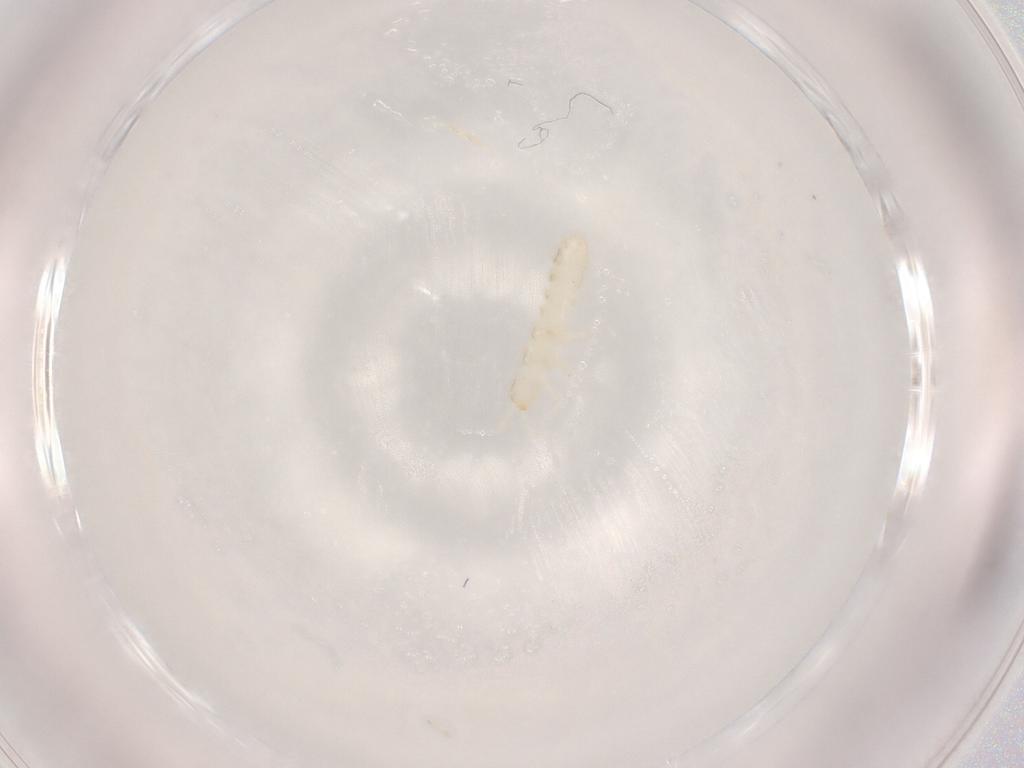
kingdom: Animalia
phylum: Arthropoda
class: Collembola
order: Entomobryomorpha
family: Isotomidae
